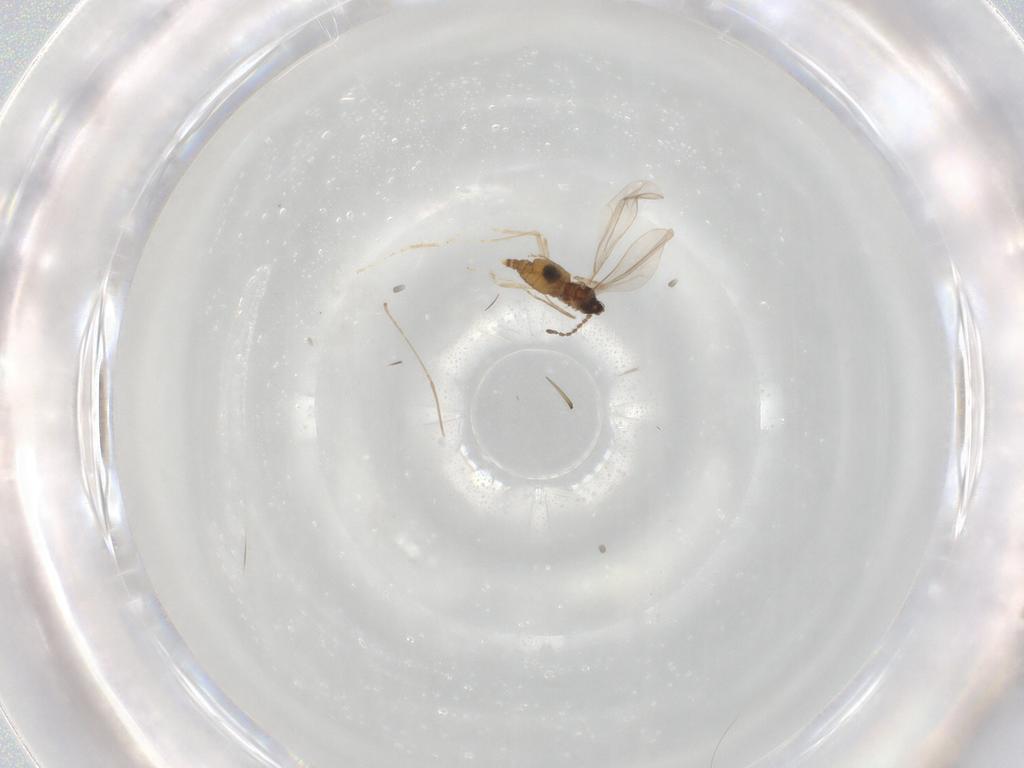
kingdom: Animalia
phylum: Arthropoda
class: Insecta
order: Diptera
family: Cecidomyiidae
